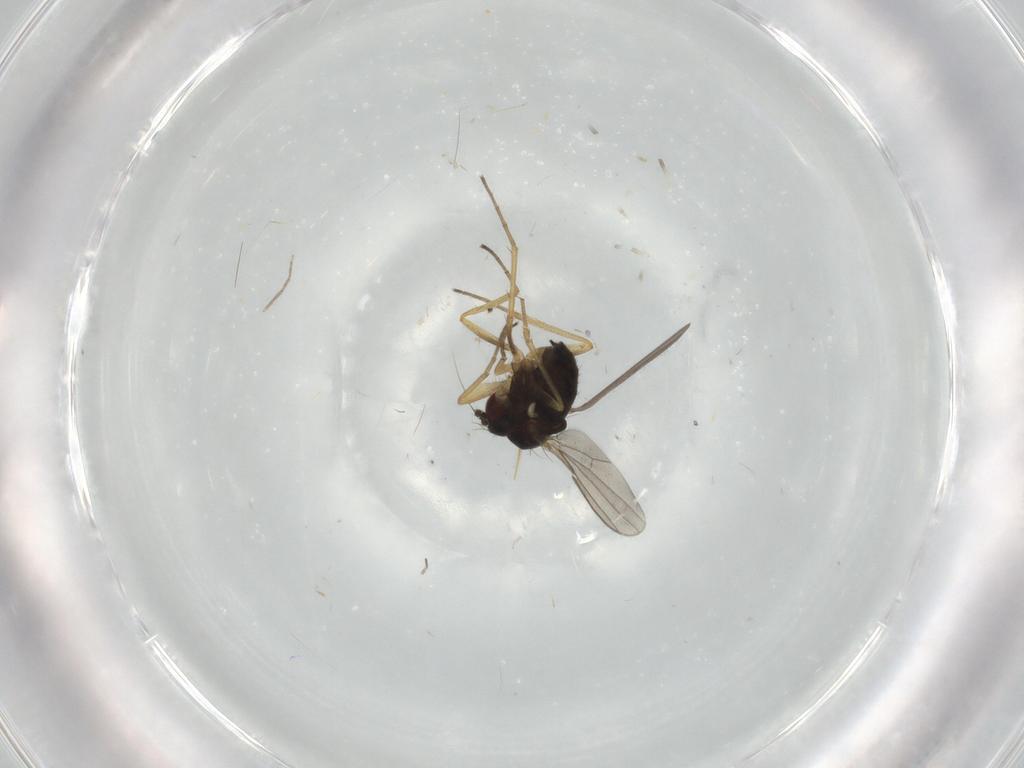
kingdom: Animalia
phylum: Arthropoda
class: Insecta
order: Diptera
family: Dolichopodidae
